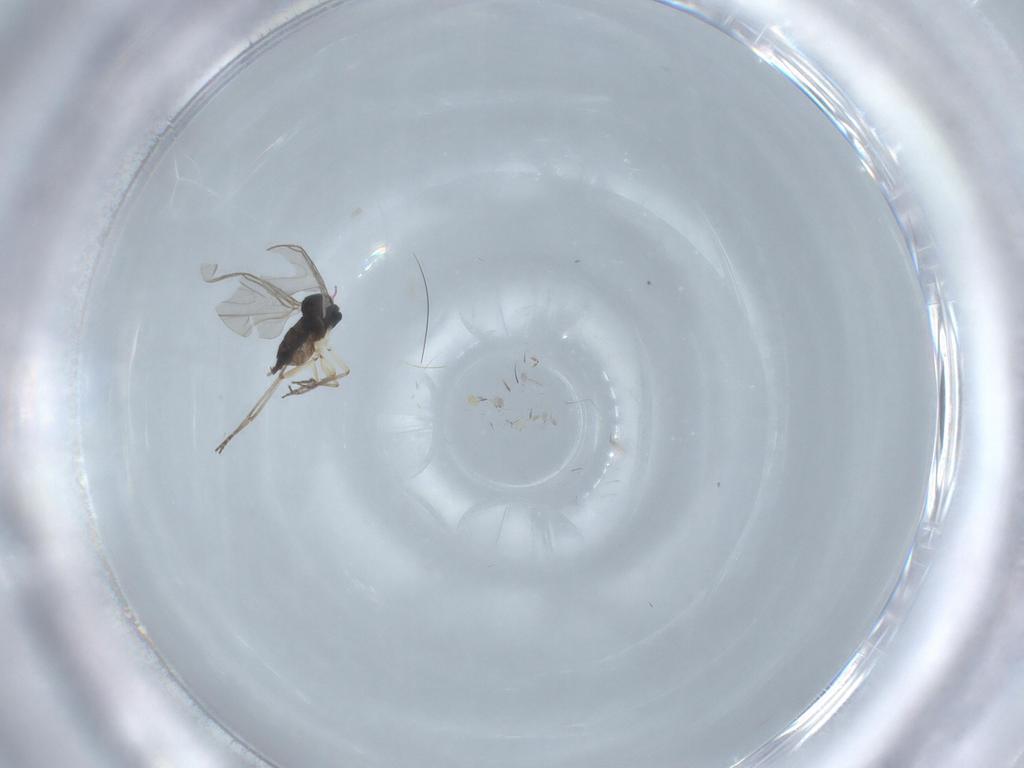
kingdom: Animalia
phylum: Arthropoda
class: Insecta
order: Diptera
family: Sciaridae
